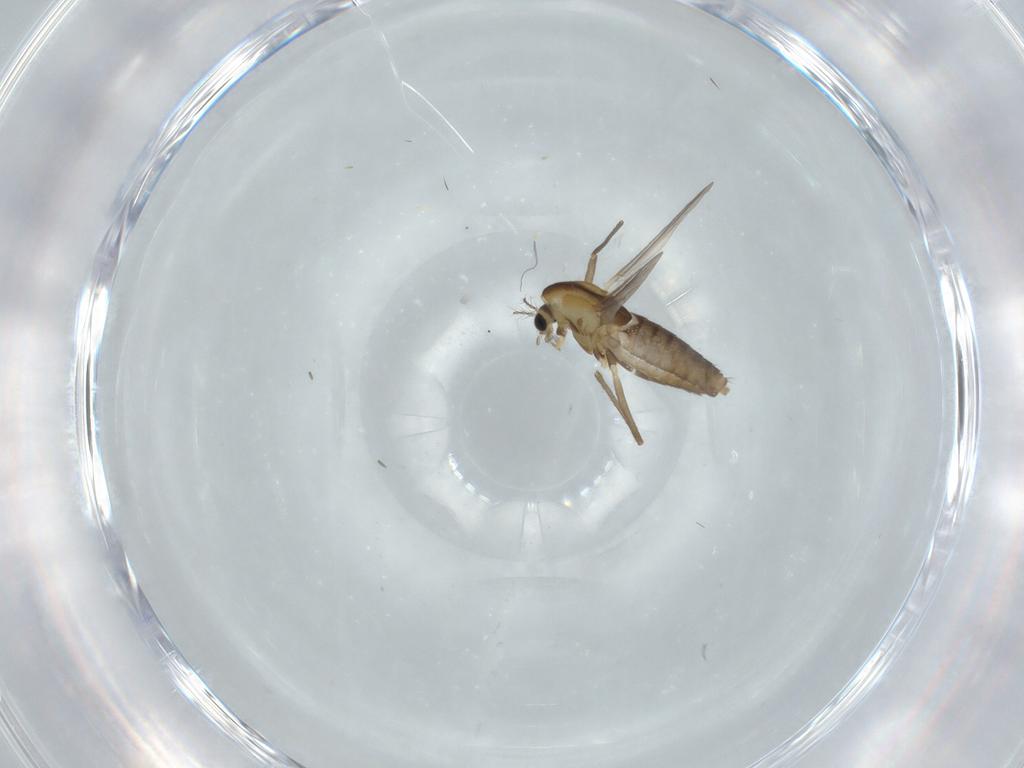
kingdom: Animalia
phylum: Arthropoda
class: Insecta
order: Diptera
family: Chironomidae
